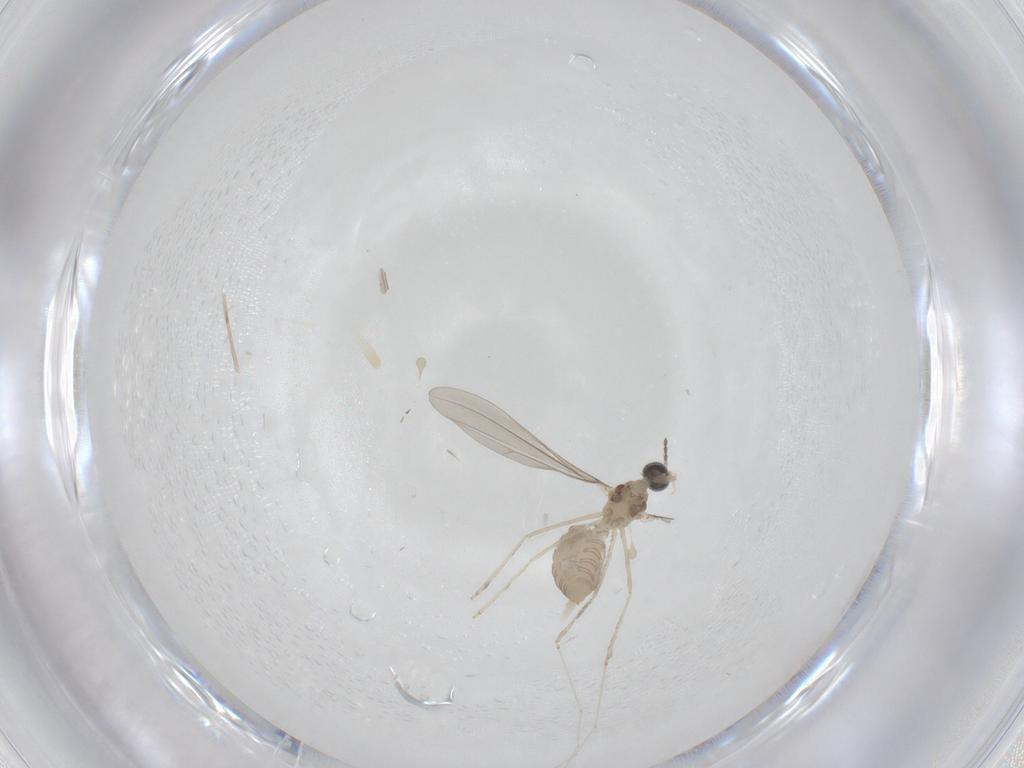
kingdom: Animalia
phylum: Arthropoda
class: Insecta
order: Diptera
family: Cecidomyiidae
